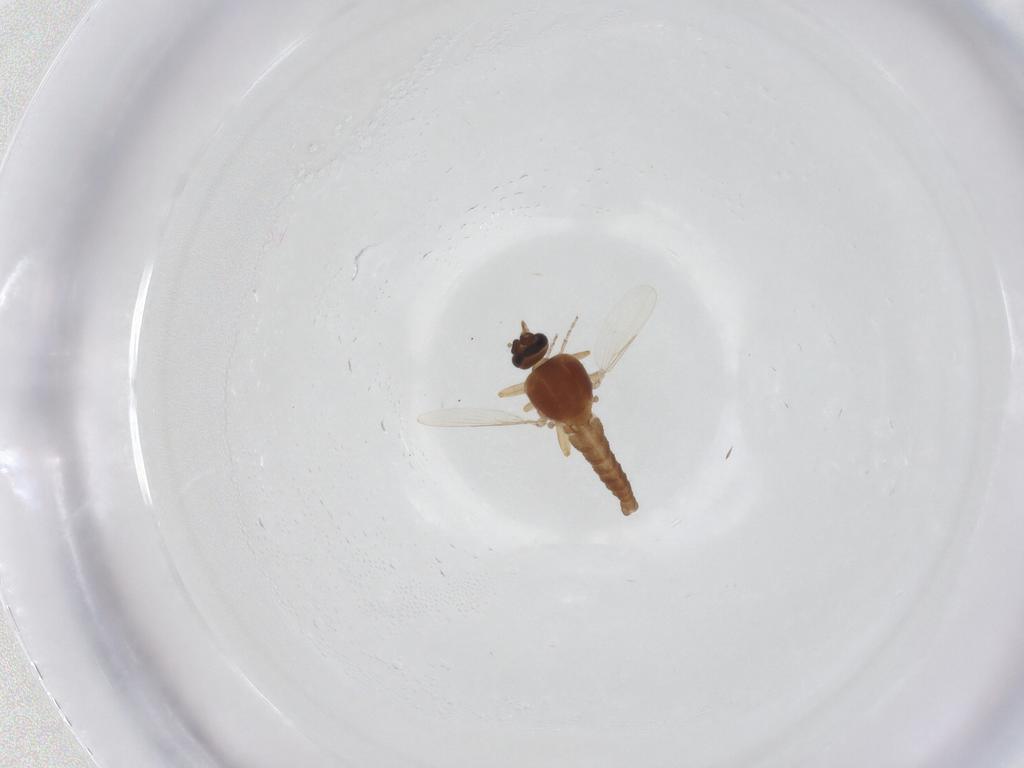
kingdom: Animalia
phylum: Arthropoda
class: Insecta
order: Diptera
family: Ceratopogonidae
